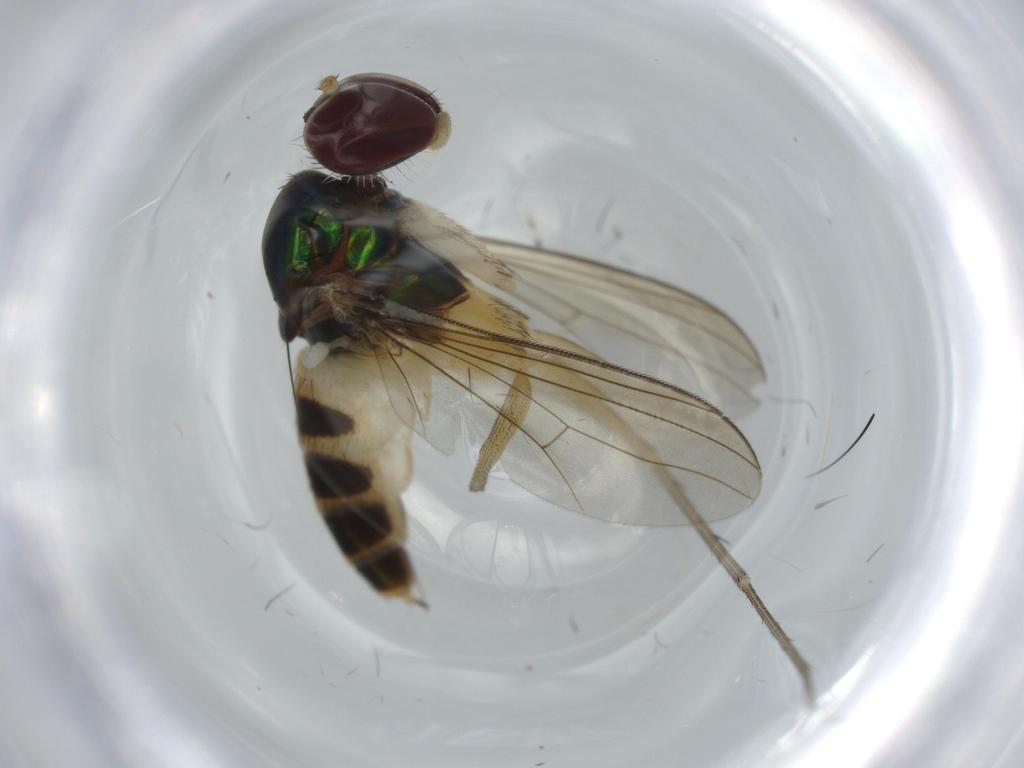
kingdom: Animalia
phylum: Arthropoda
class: Insecta
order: Diptera
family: Dolichopodidae
